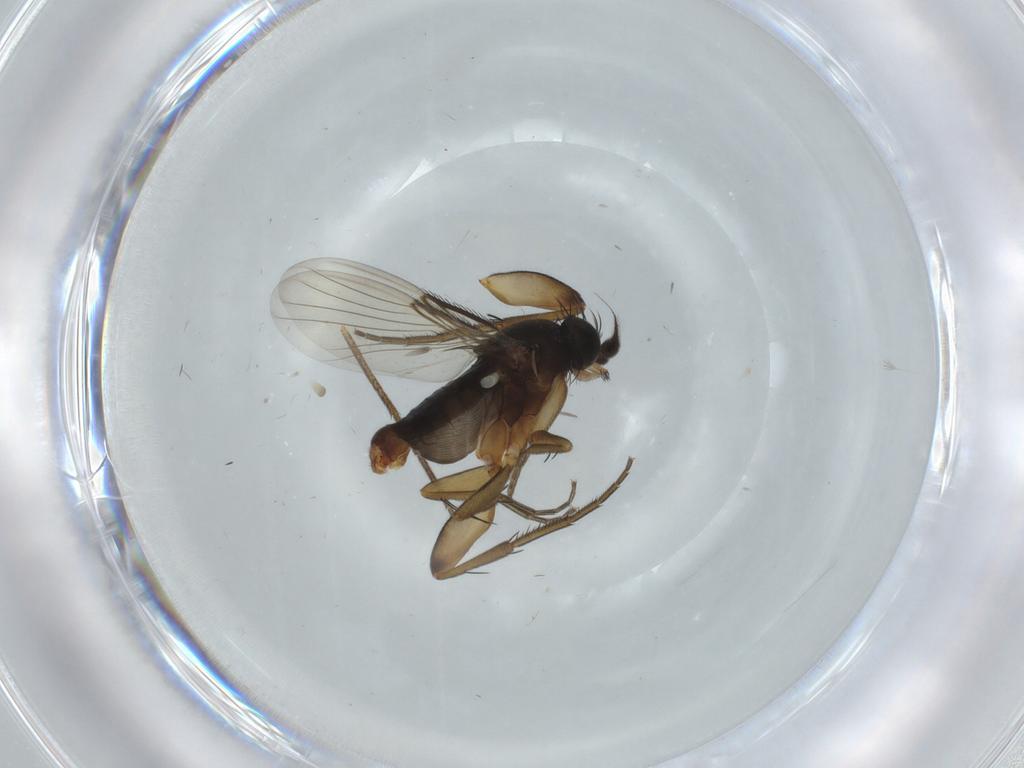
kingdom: Animalia
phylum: Arthropoda
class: Insecta
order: Diptera
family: Phoridae
